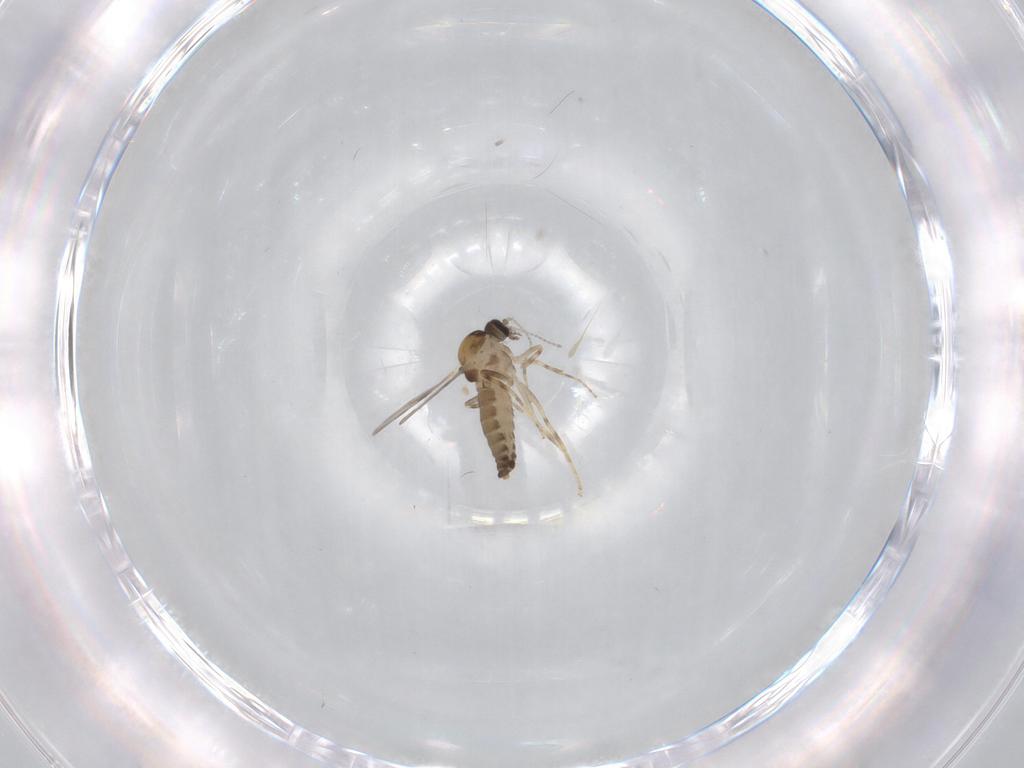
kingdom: Animalia
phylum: Arthropoda
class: Insecta
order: Diptera
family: Ceratopogonidae
